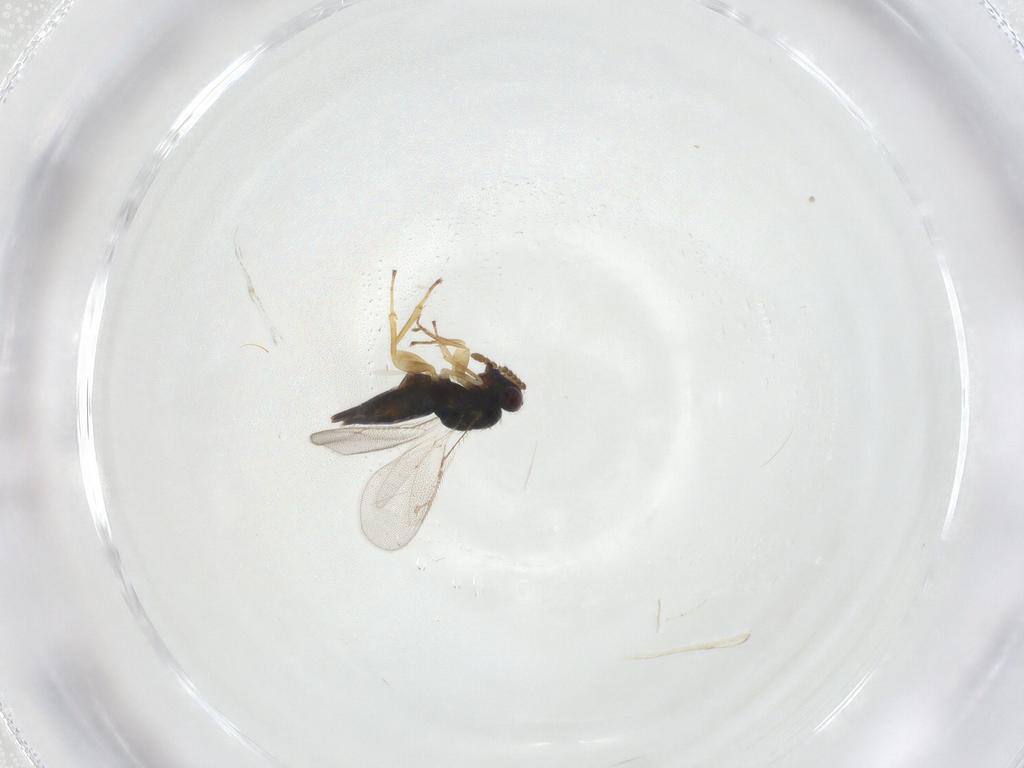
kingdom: Animalia
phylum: Arthropoda
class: Insecta
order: Hymenoptera
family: Pirenidae
